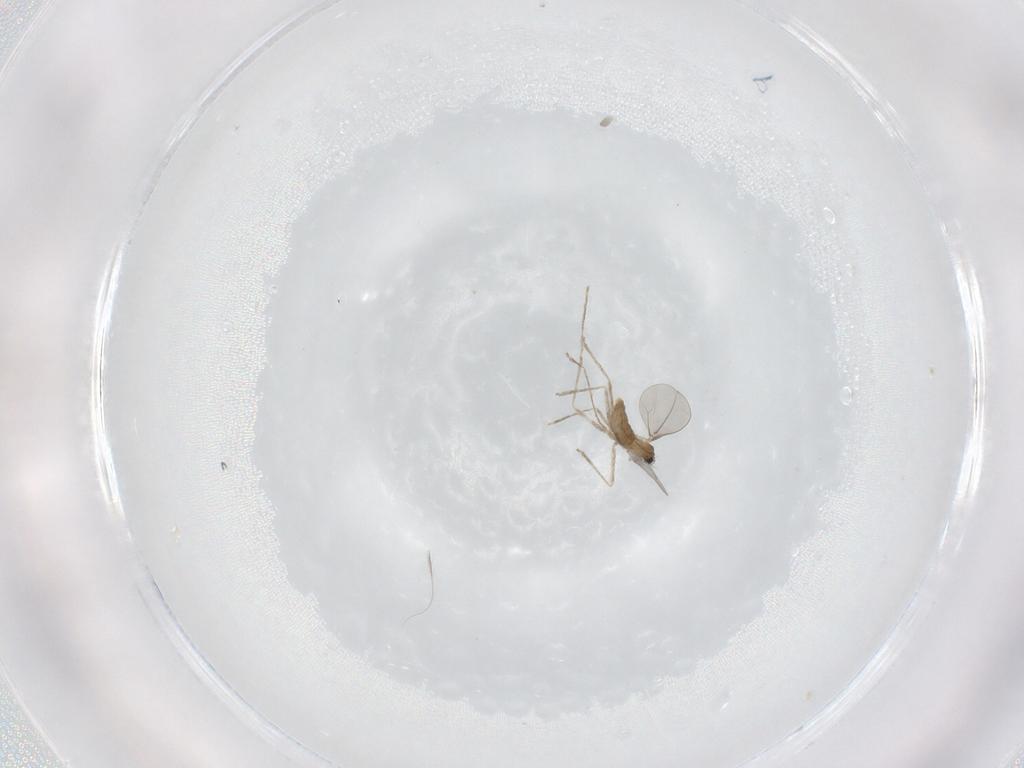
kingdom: Animalia
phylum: Arthropoda
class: Insecta
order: Diptera
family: Cecidomyiidae
